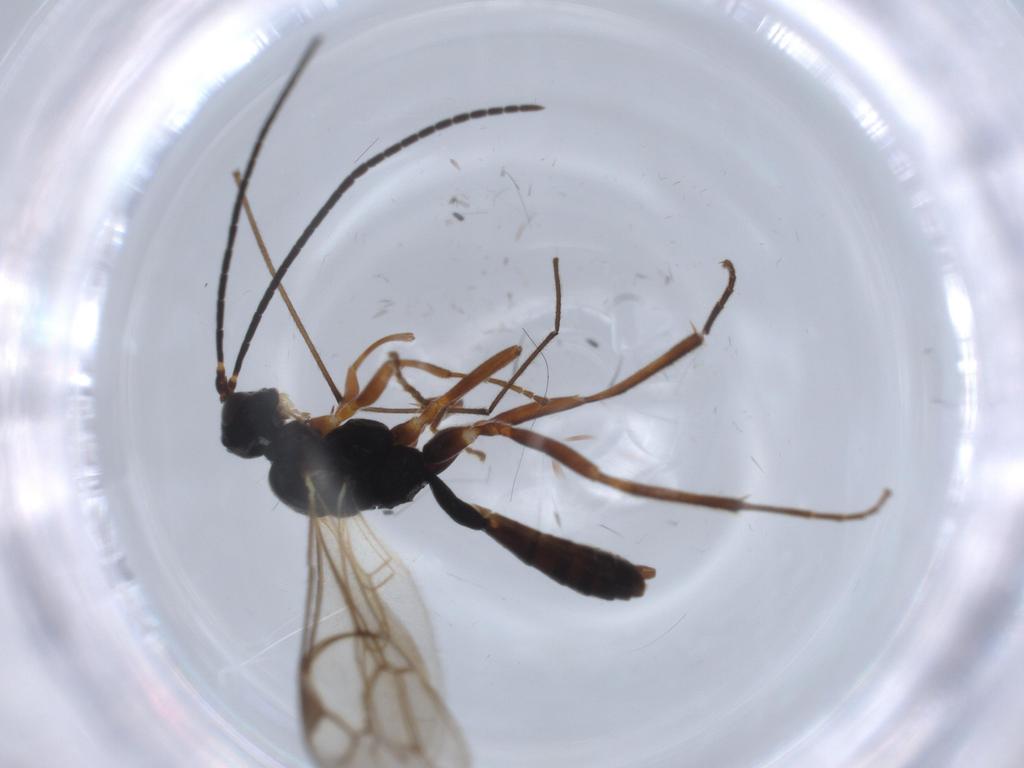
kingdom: Animalia
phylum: Arthropoda
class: Insecta
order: Hymenoptera
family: Ichneumonidae
